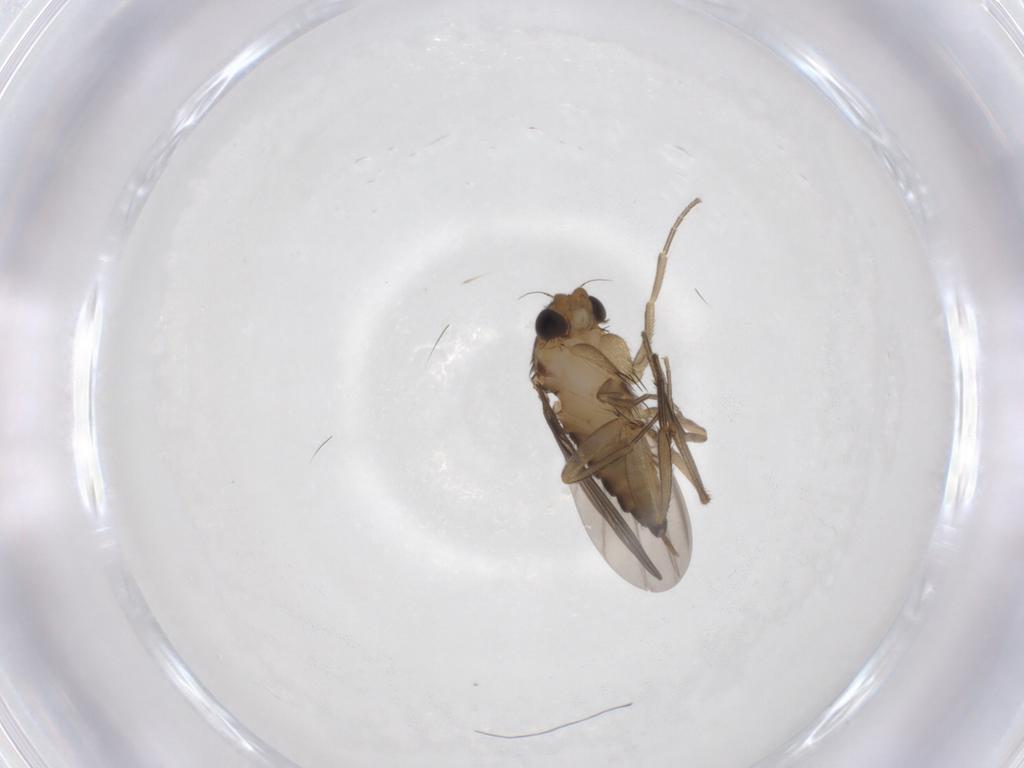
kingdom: Animalia
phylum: Arthropoda
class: Insecta
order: Diptera
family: Phoridae
